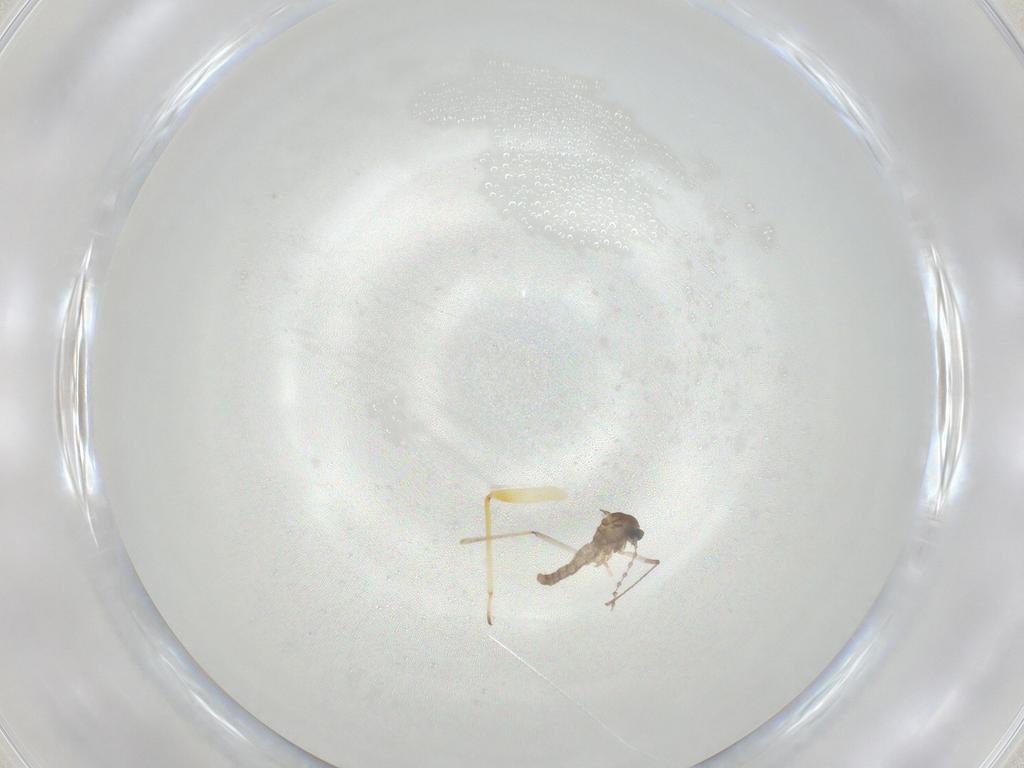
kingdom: Animalia
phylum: Arthropoda
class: Insecta
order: Diptera
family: Cecidomyiidae
